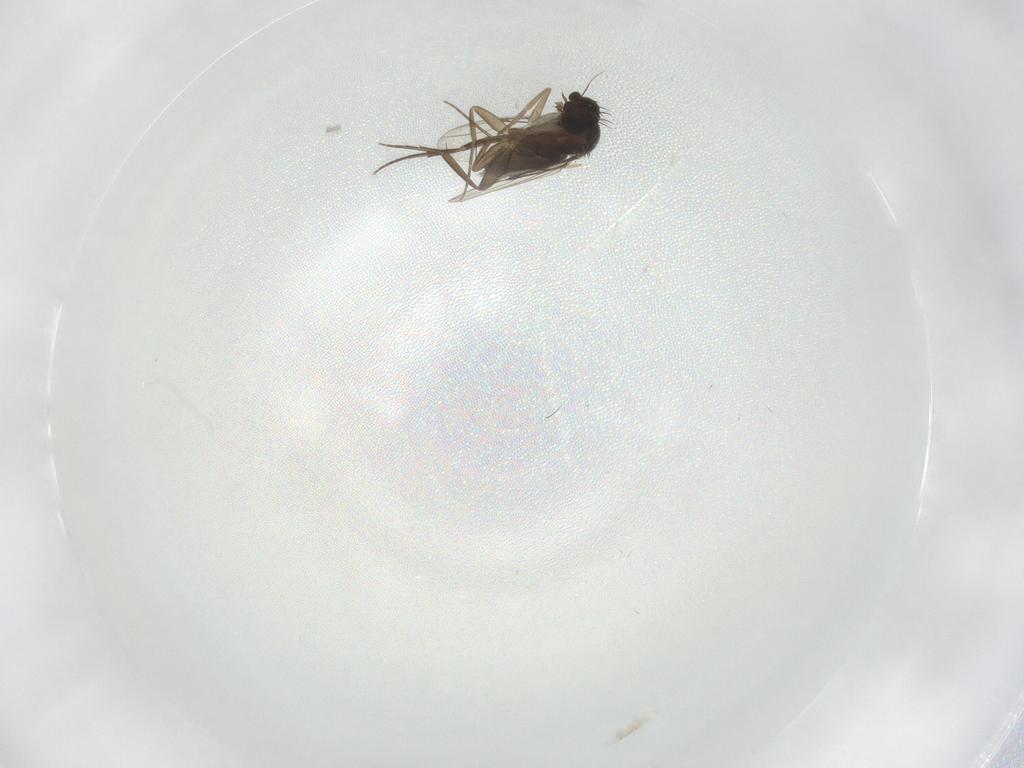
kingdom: Animalia
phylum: Arthropoda
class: Insecta
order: Diptera
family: Phoridae
